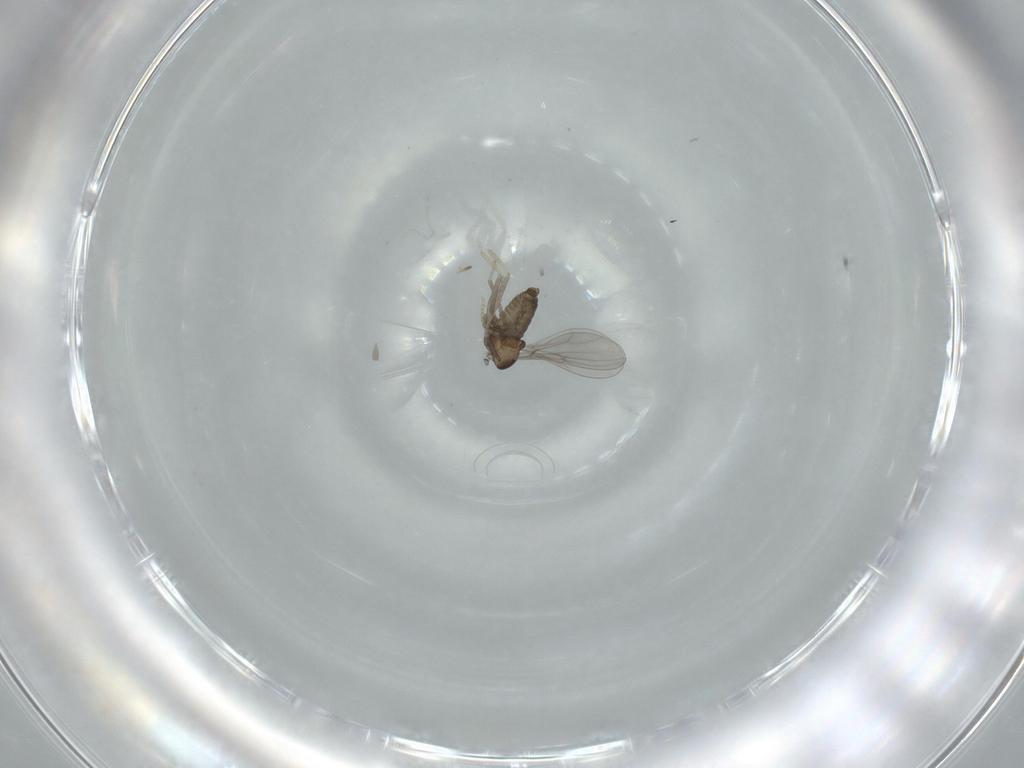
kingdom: Animalia
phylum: Arthropoda
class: Insecta
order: Diptera
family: Cecidomyiidae
